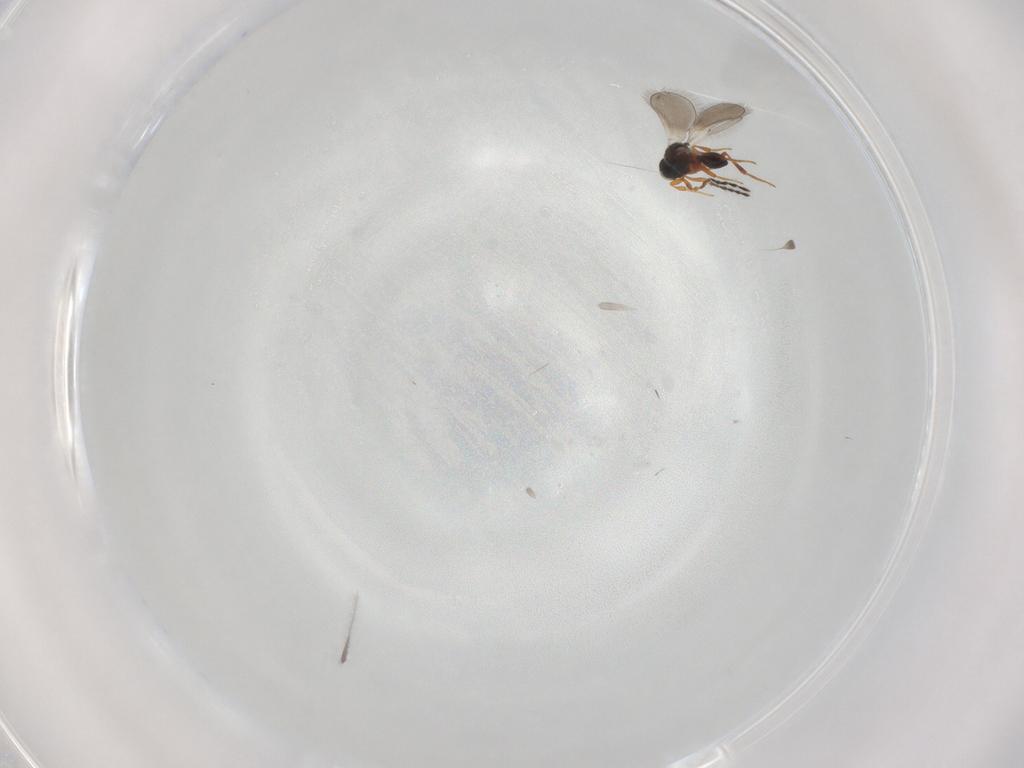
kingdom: Animalia
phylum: Arthropoda
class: Insecta
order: Hymenoptera
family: Platygastridae
